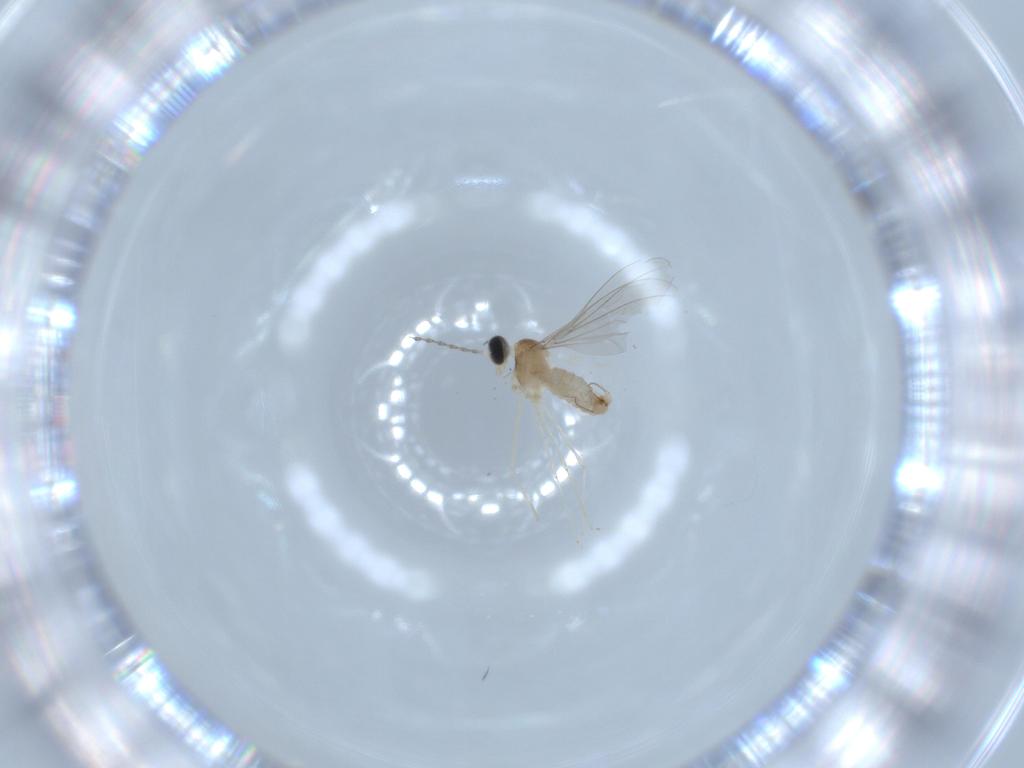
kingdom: Animalia
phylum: Arthropoda
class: Insecta
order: Diptera
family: Cecidomyiidae
